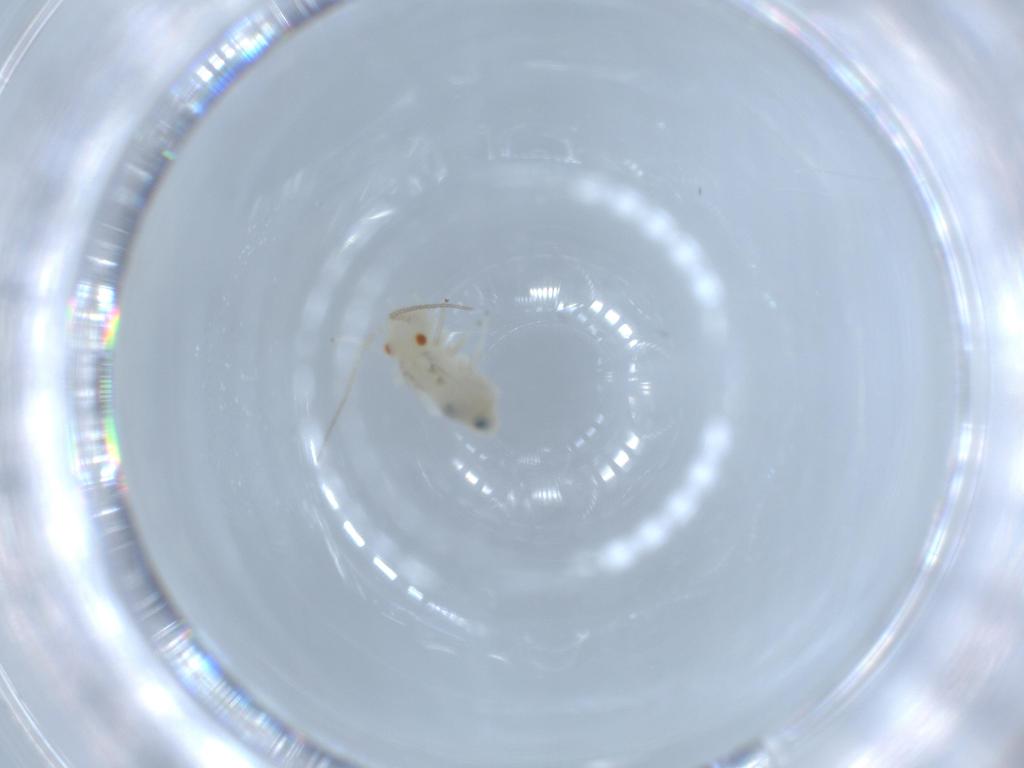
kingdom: Animalia
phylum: Arthropoda
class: Insecta
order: Psocodea
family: Caeciliusidae
